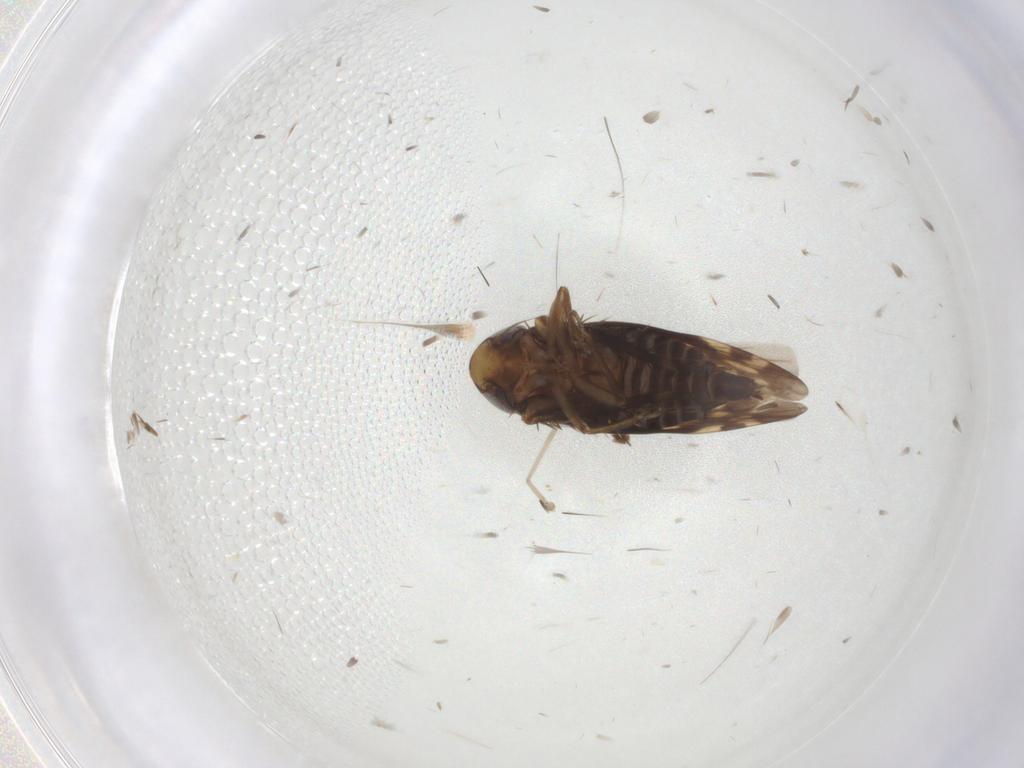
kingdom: Animalia
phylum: Arthropoda
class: Insecta
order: Hemiptera
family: Cicadellidae
